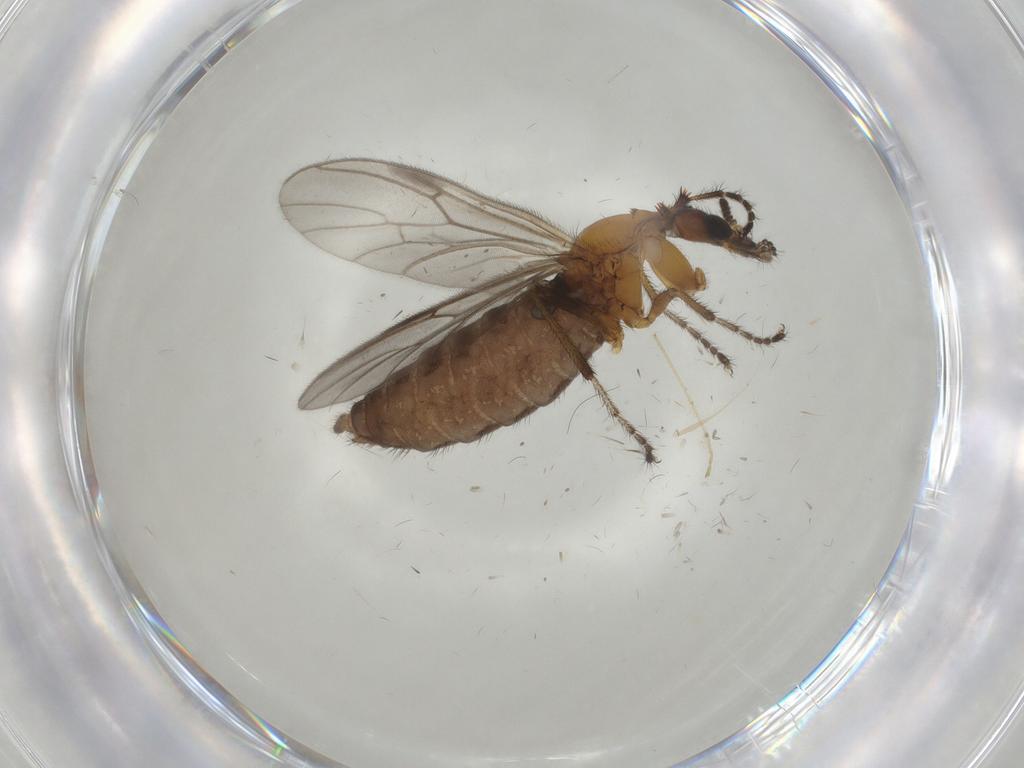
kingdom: Animalia
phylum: Arthropoda
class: Insecta
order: Diptera
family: Bibionidae
